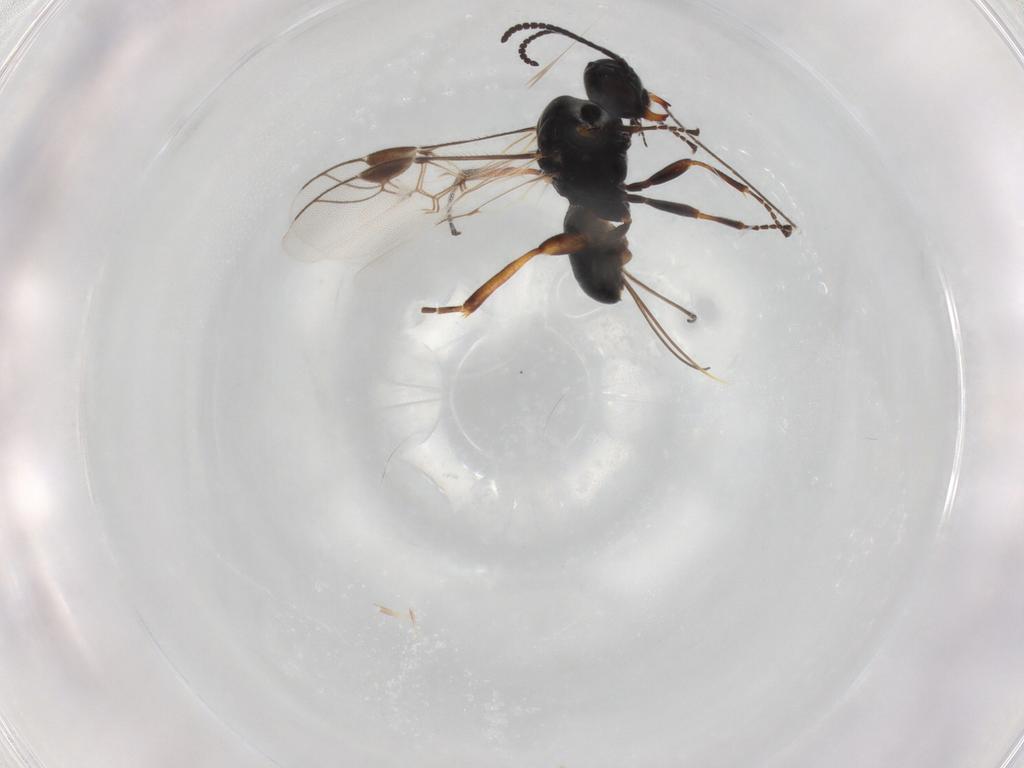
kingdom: Animalia
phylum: Arthropoda
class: Insecta
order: Hymenoptera
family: Braconidae
